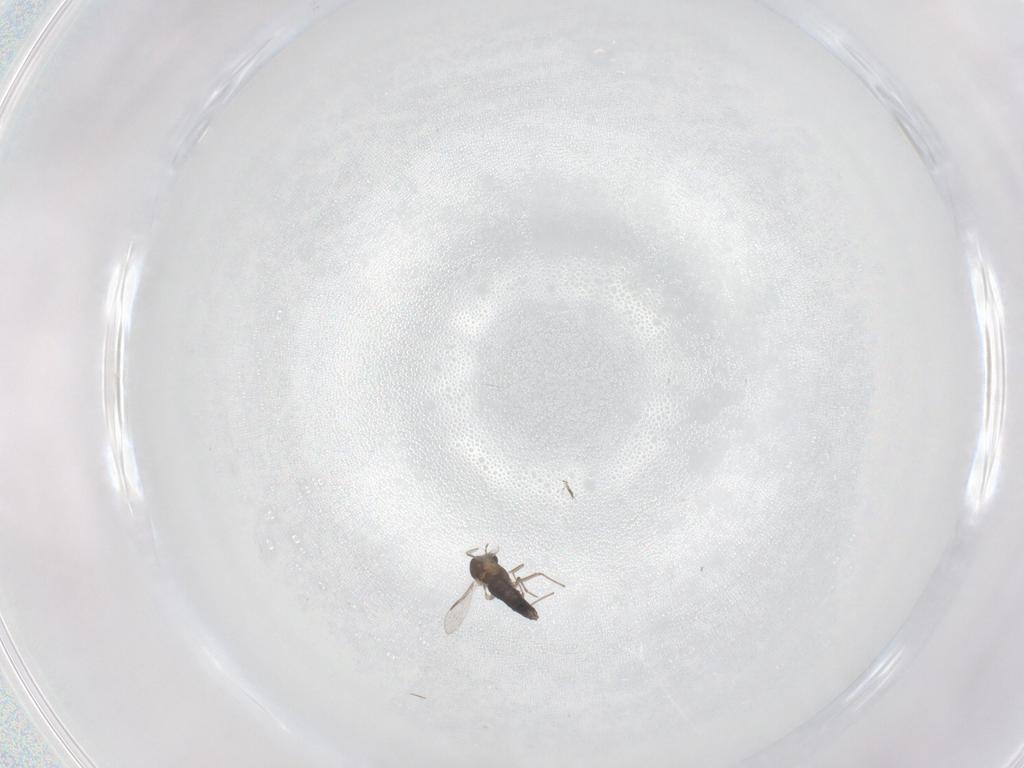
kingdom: Animalia
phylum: Arthropoda
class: Insecta
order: Diptera
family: Chironomidae
